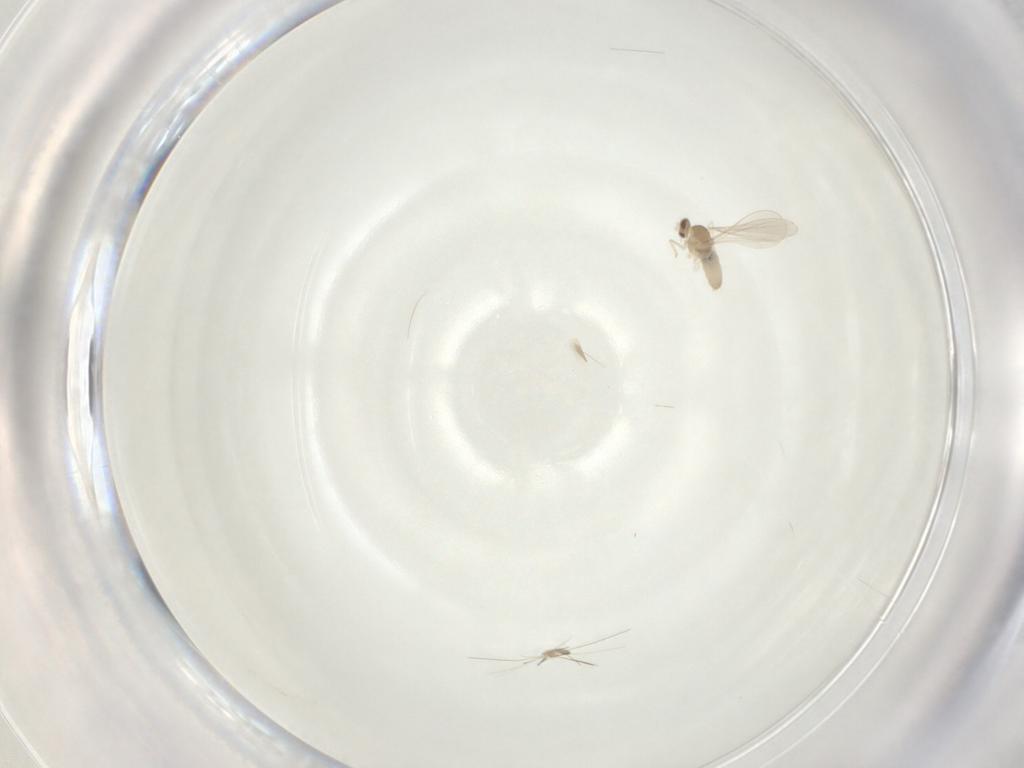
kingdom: Animalia
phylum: Arthropoda
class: Insecta
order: Diptera
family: Cecidomyiidae
